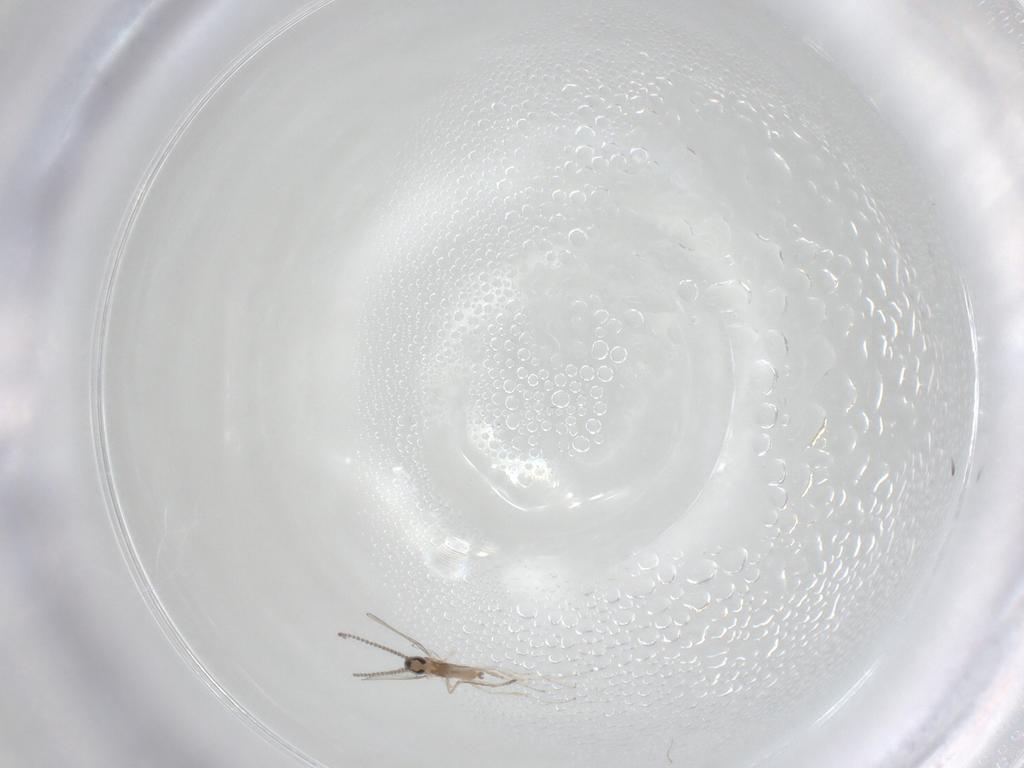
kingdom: Animalia
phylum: Arthropoda
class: Insecta
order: Diptera
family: Cecidomyiidae
